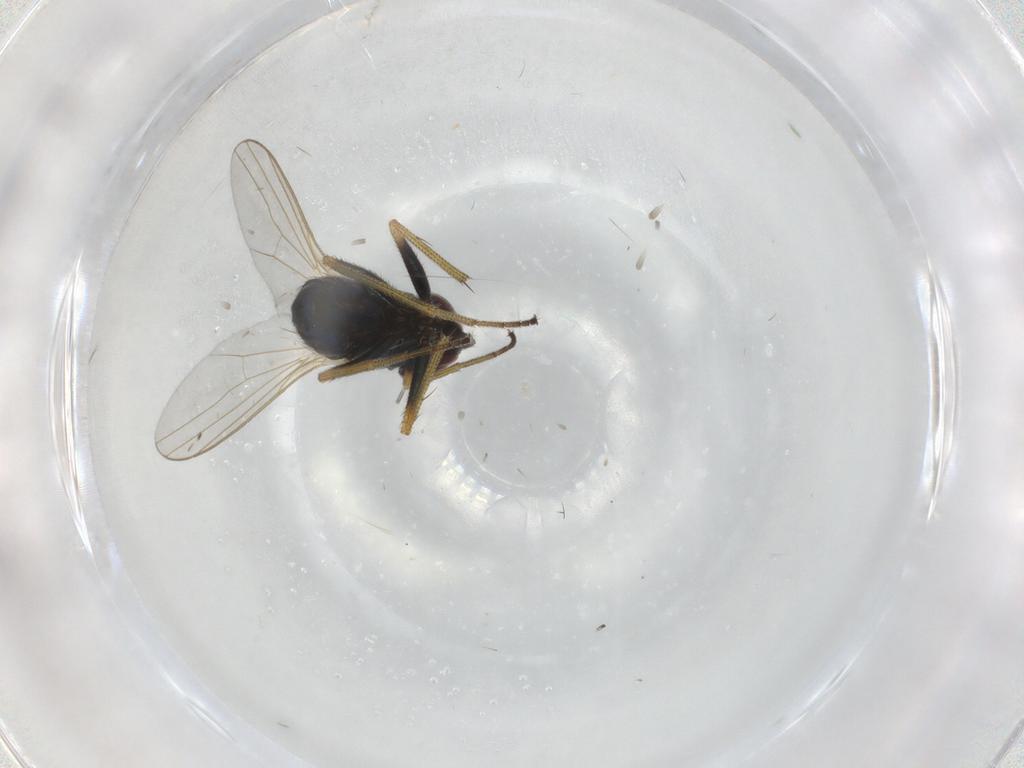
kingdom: Animalia
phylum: Arthropoda
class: Insecta
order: Diptera
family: Dolichopodidae
